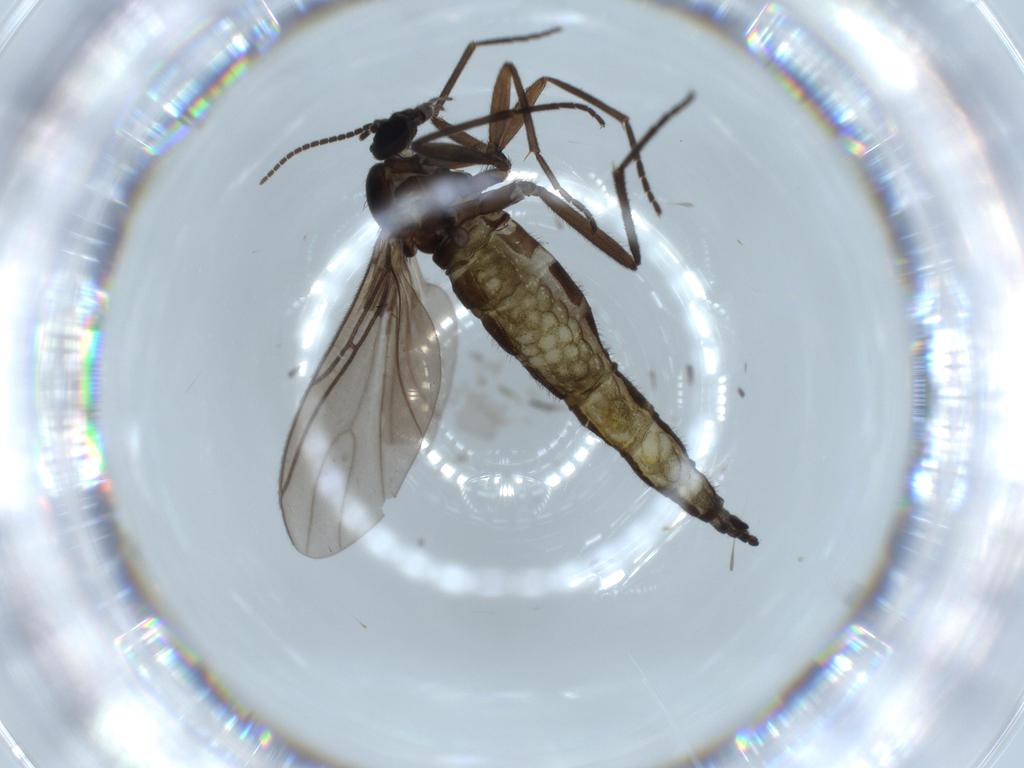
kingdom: Animalia
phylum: Arthropoda
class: Insecta
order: Diptera
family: Sciaridae
